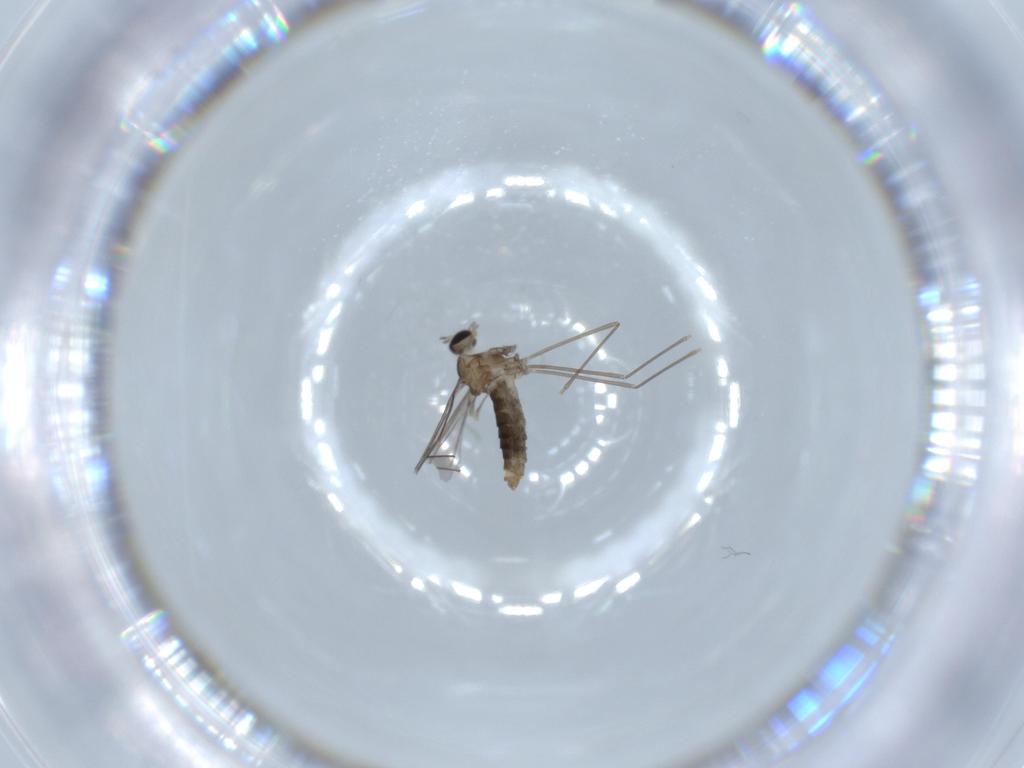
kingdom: Animalia
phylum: Arthropoda
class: Insecta
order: Diptera
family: Cecidomyiidae
